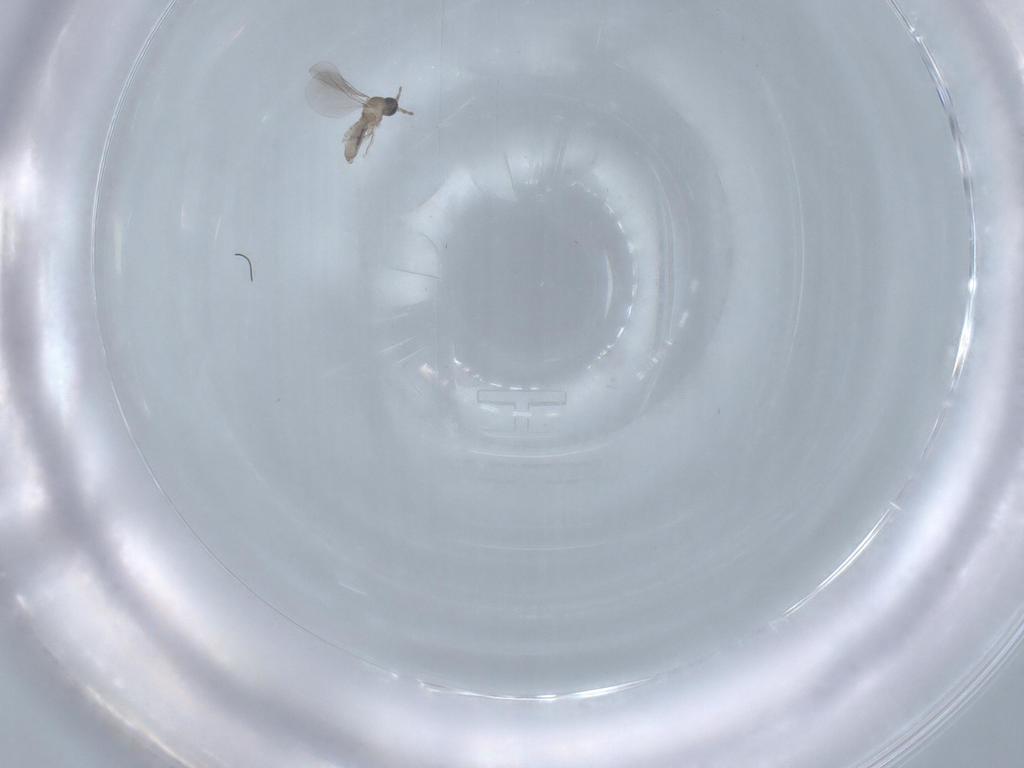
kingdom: Animalia
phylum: Arthropoda
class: Insecta
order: Diptera
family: Cecidomyiidae
